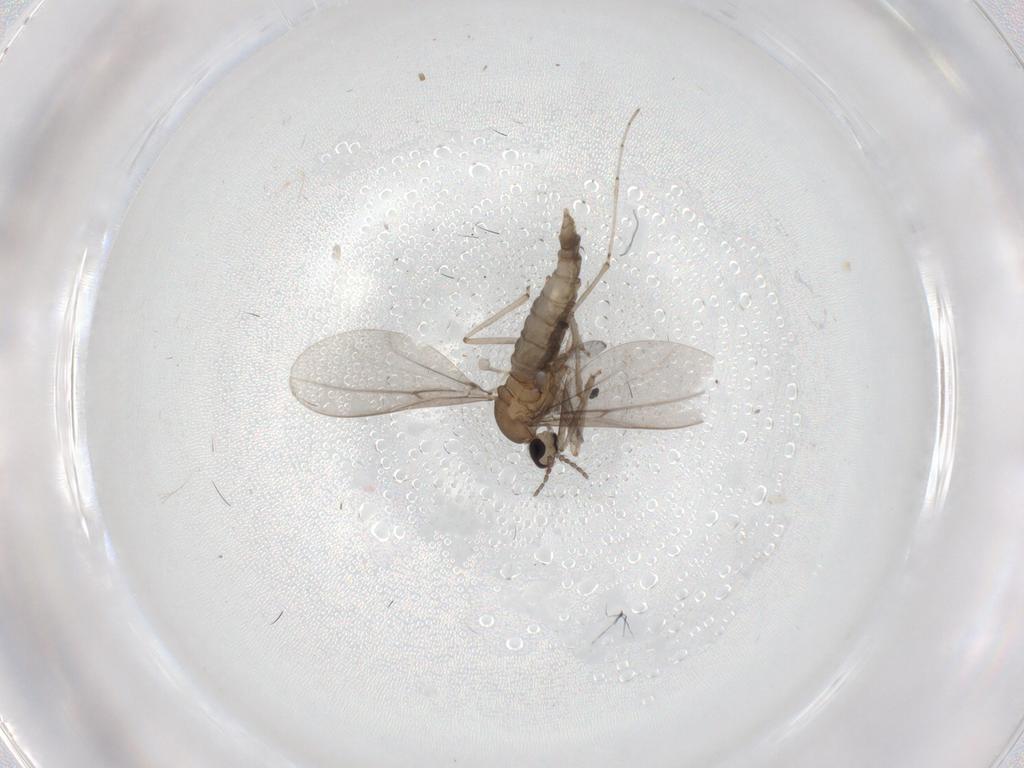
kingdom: Animalia
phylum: Arthropoda
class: Insecta
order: Diptera
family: Cecidomyiidae
